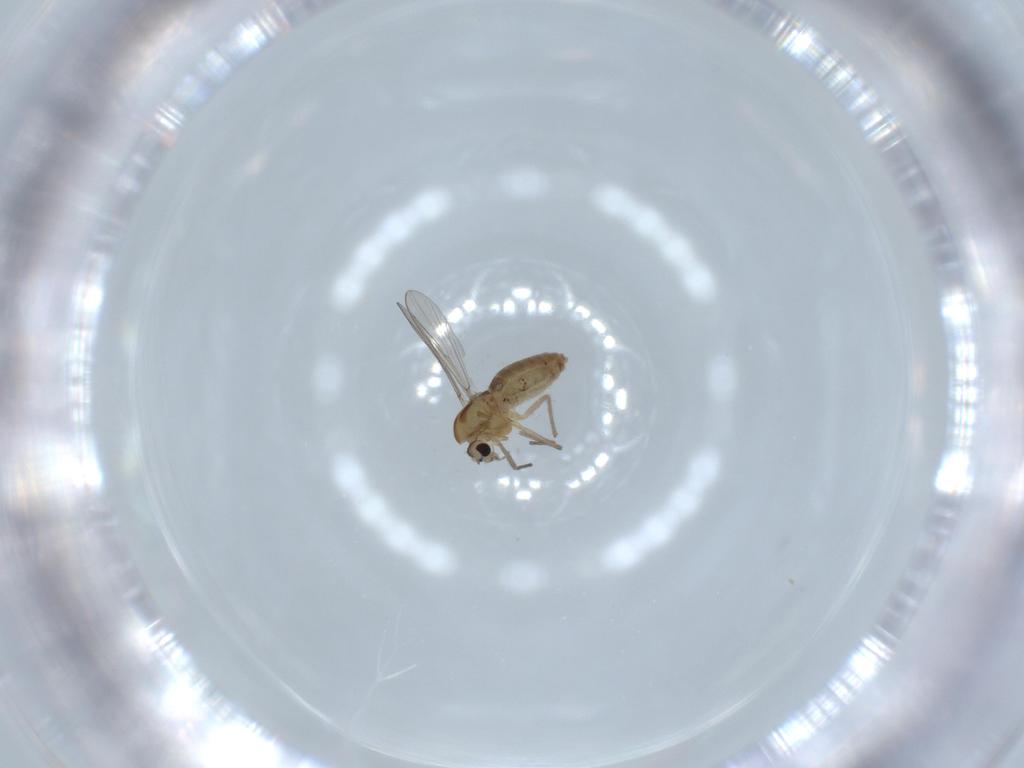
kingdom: Animalia
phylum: Arthropoda
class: Insecta
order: Diptera
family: Chironomidae
